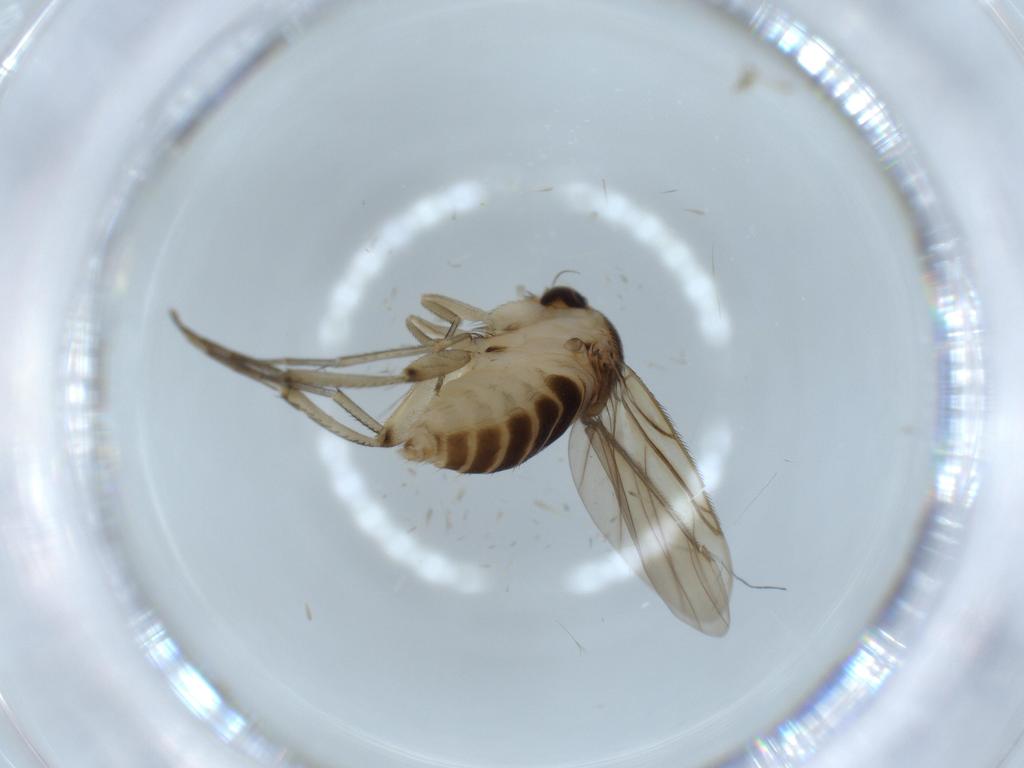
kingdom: Animalia
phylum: Arthropoda
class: Insecta
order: Diptera
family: Phoridae
